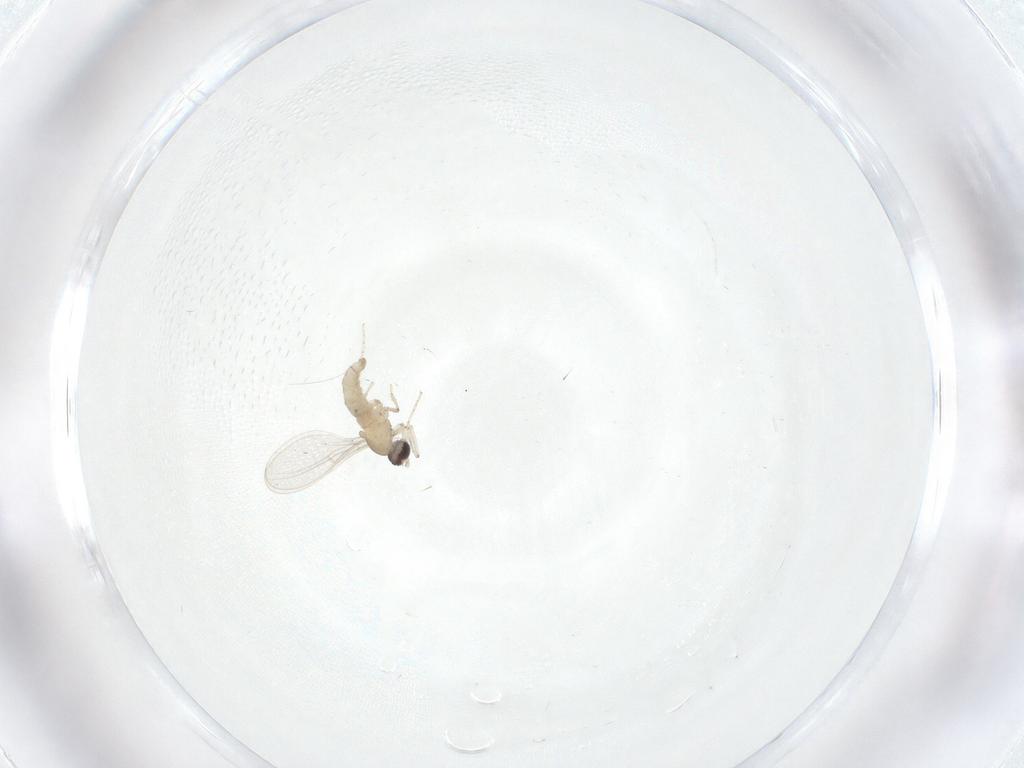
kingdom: Animalia
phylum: Arthropoda
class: Insecta
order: Diptera
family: Cecidomyiidae
